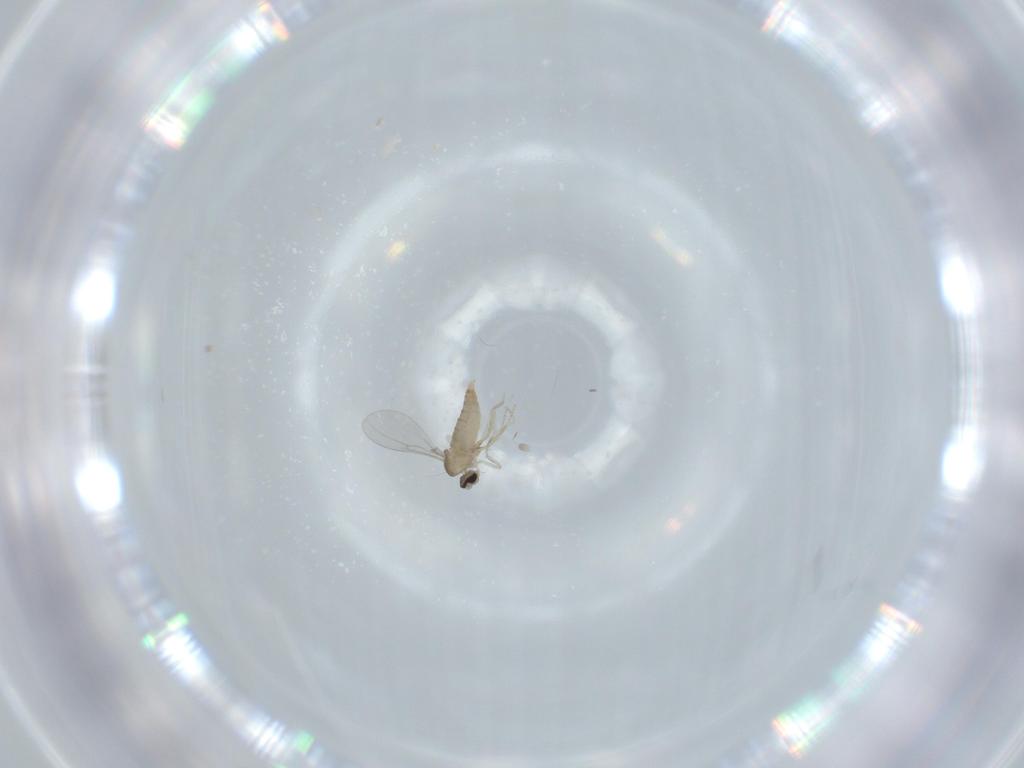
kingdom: Animalia
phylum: Arthropoda
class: Insecta
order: Diptera
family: Cecidomyiidae
